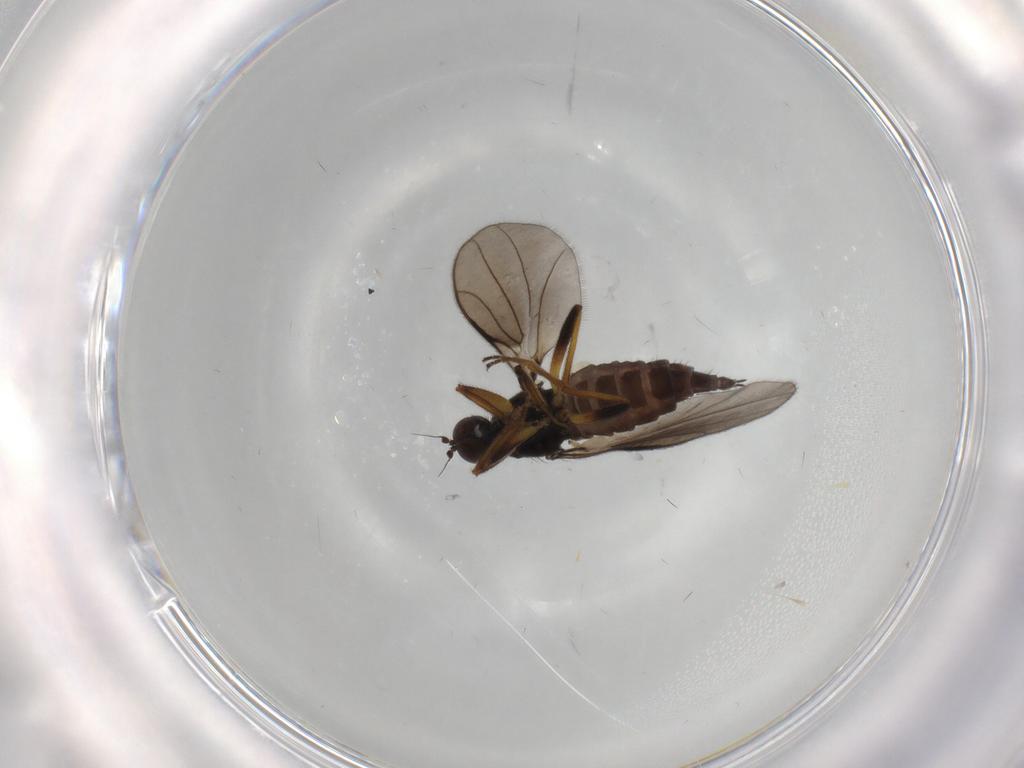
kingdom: Animalia
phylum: Arthropoda
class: Insecta
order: Diptera
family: Hybotidae
